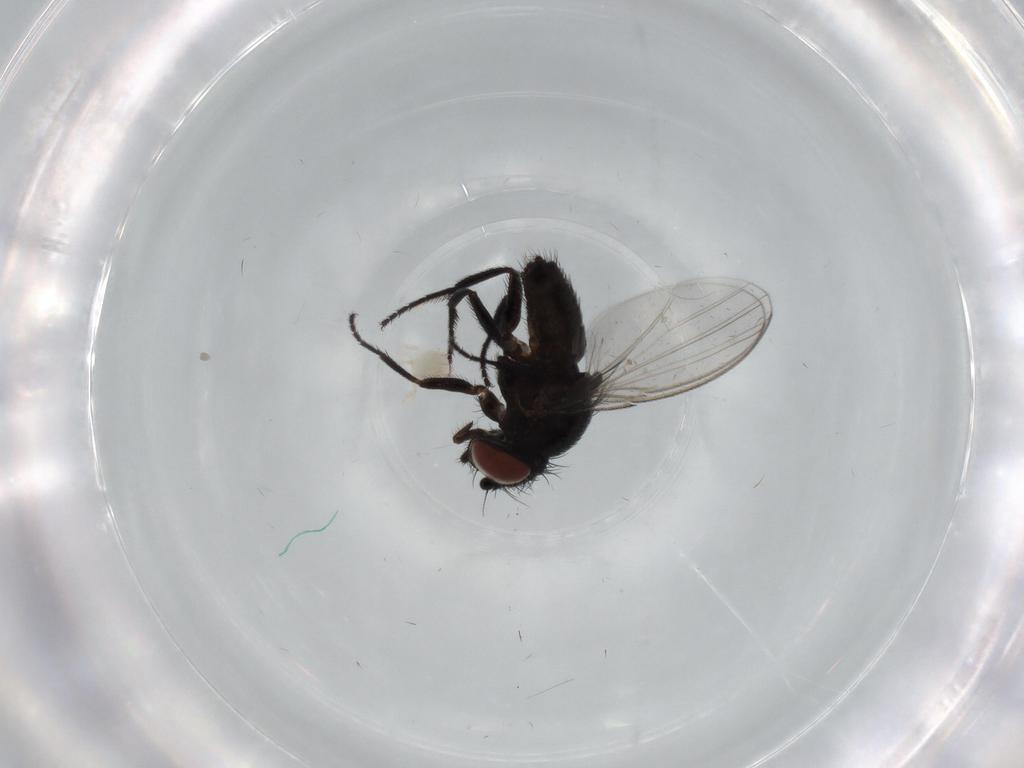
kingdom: Animalia
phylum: Arthropoda
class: Insecta
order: Diptera
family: Milichiidae
